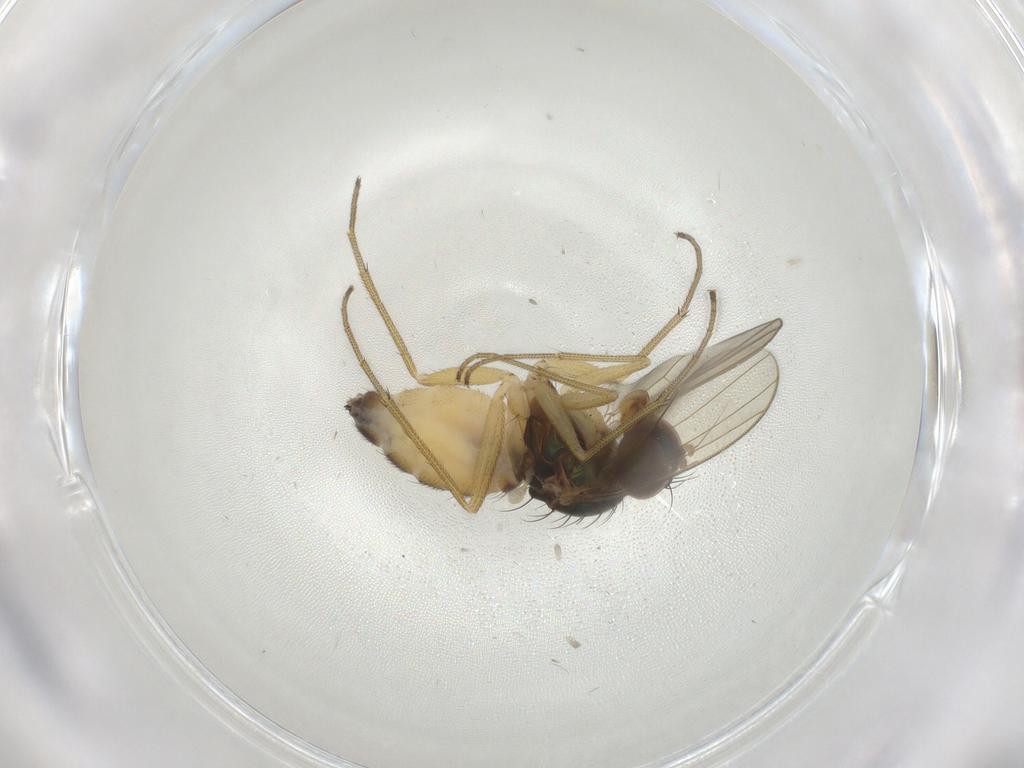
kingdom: Animalia
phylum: Arthropoda
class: Insecta
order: Diptera
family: Dolichopodidae
